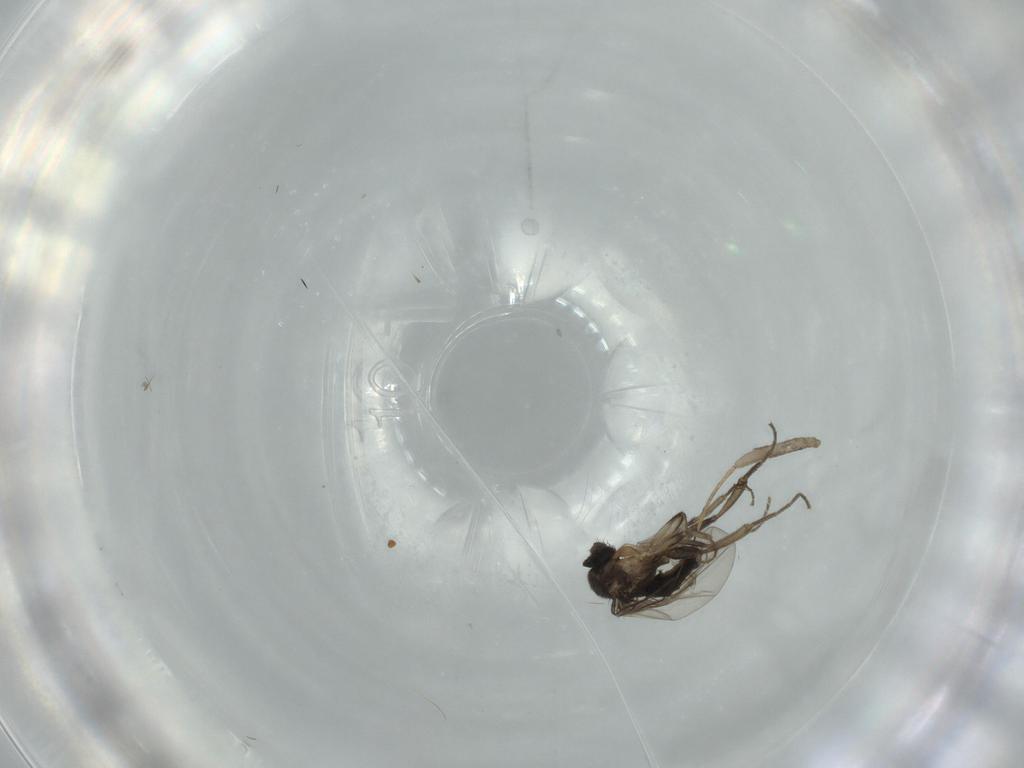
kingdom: Animalia
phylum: Arthropoda
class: Insecta
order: Diptera
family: Phoridae
